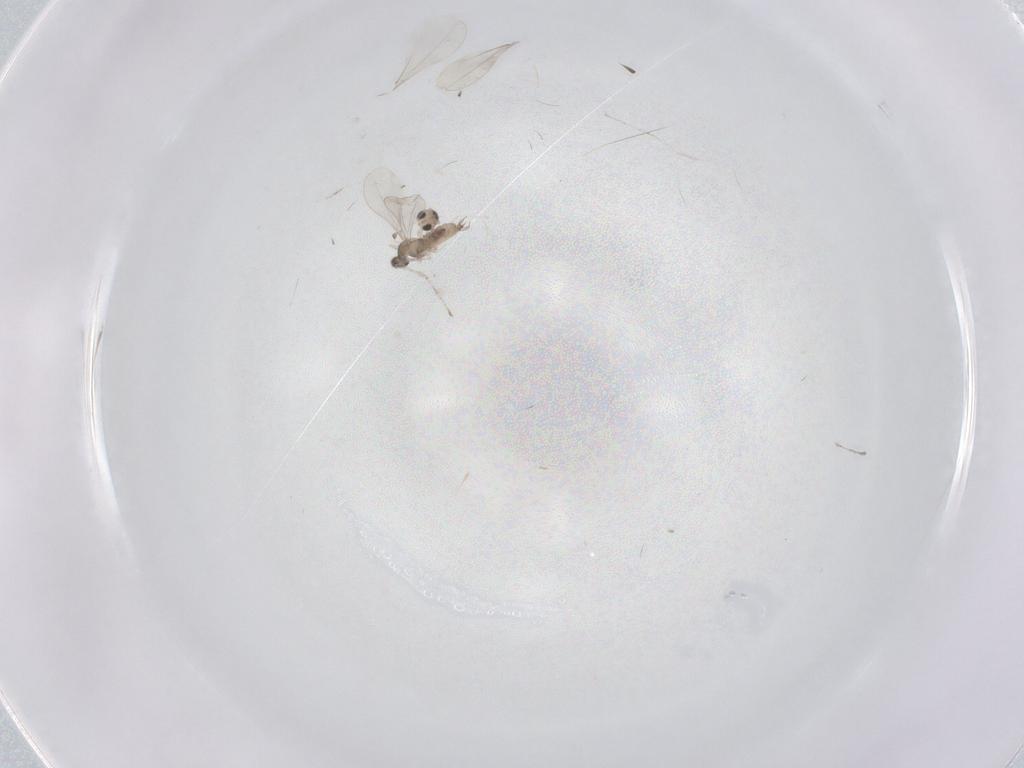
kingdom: Animalia
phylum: Arthropoda
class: Insecta
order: Diptera
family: Cecidomyiidae
